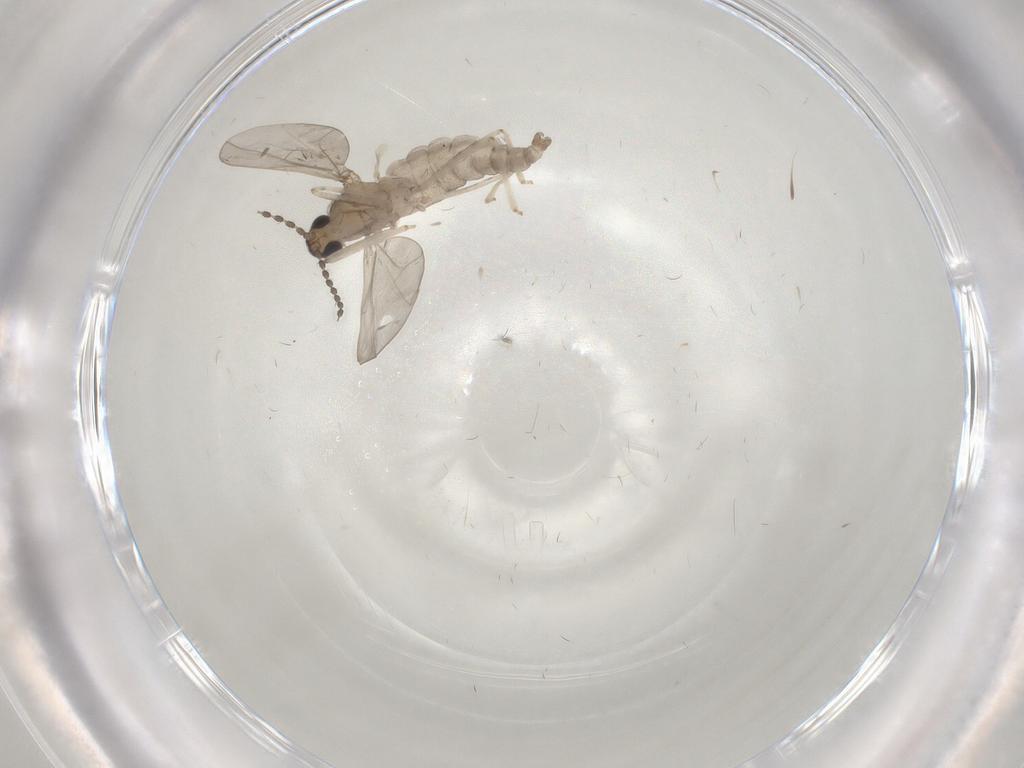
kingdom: Animalia
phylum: Arthropoda
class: Insecta
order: Diptera
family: Cecidomyiidae
